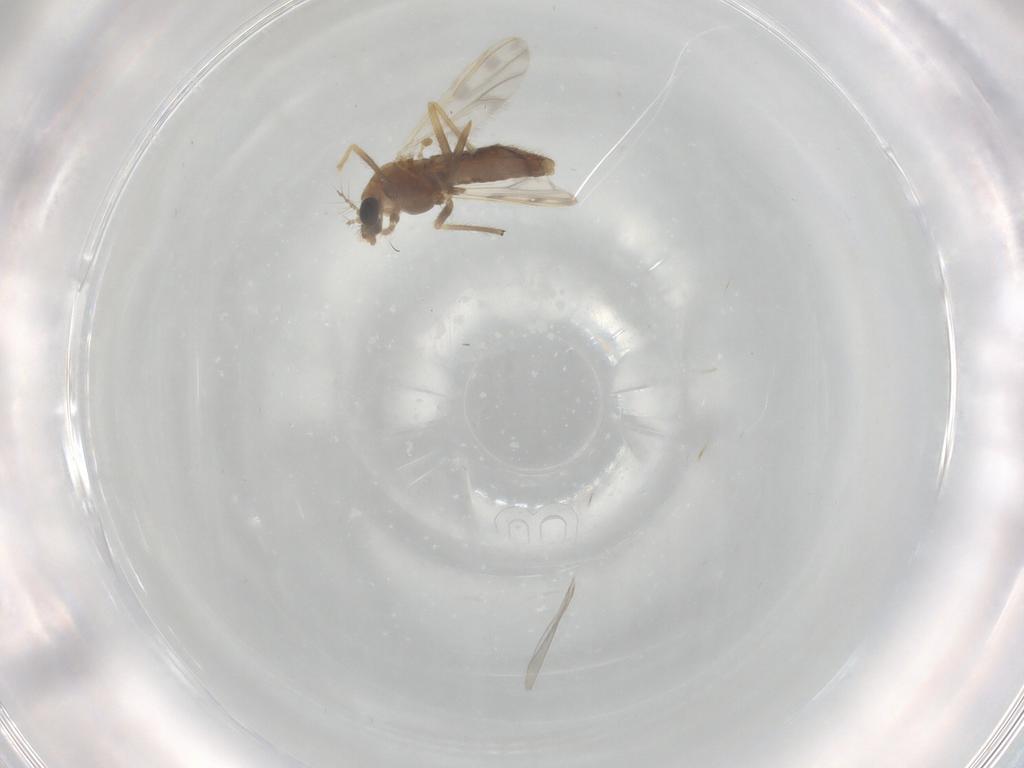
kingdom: Animalia
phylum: Arthropoda
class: Insecta
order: Diptera
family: Chironomidae
